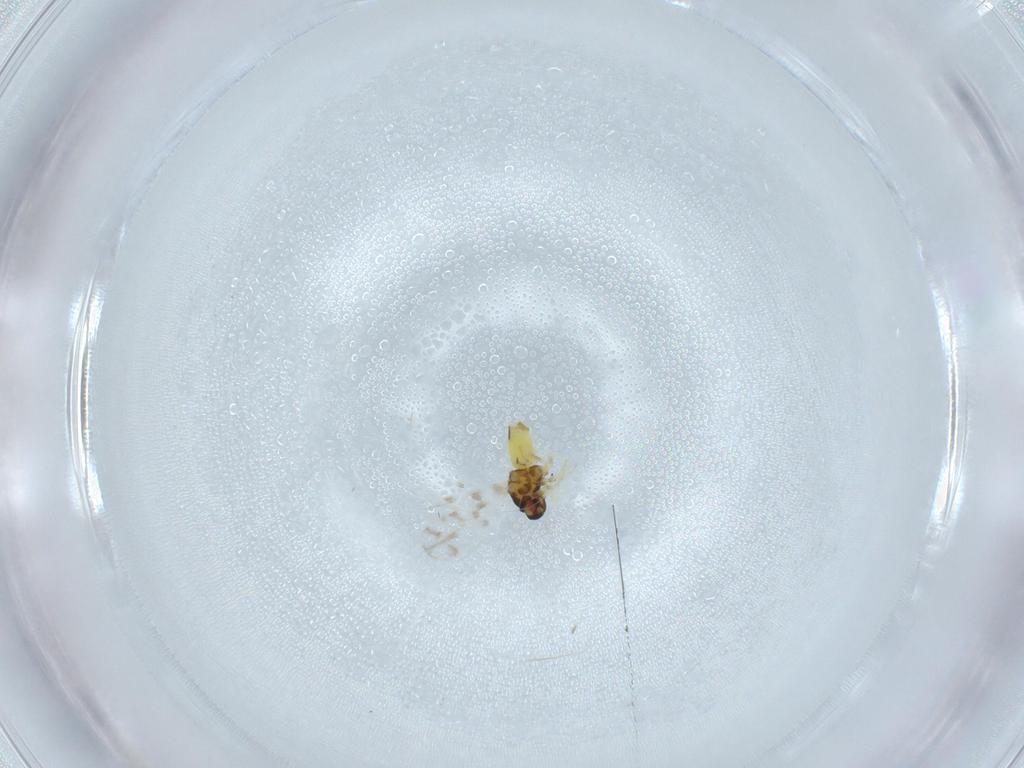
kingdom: Animalia
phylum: Arthropoda
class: Insecta
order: Hemiptera
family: Aleyrodidae
